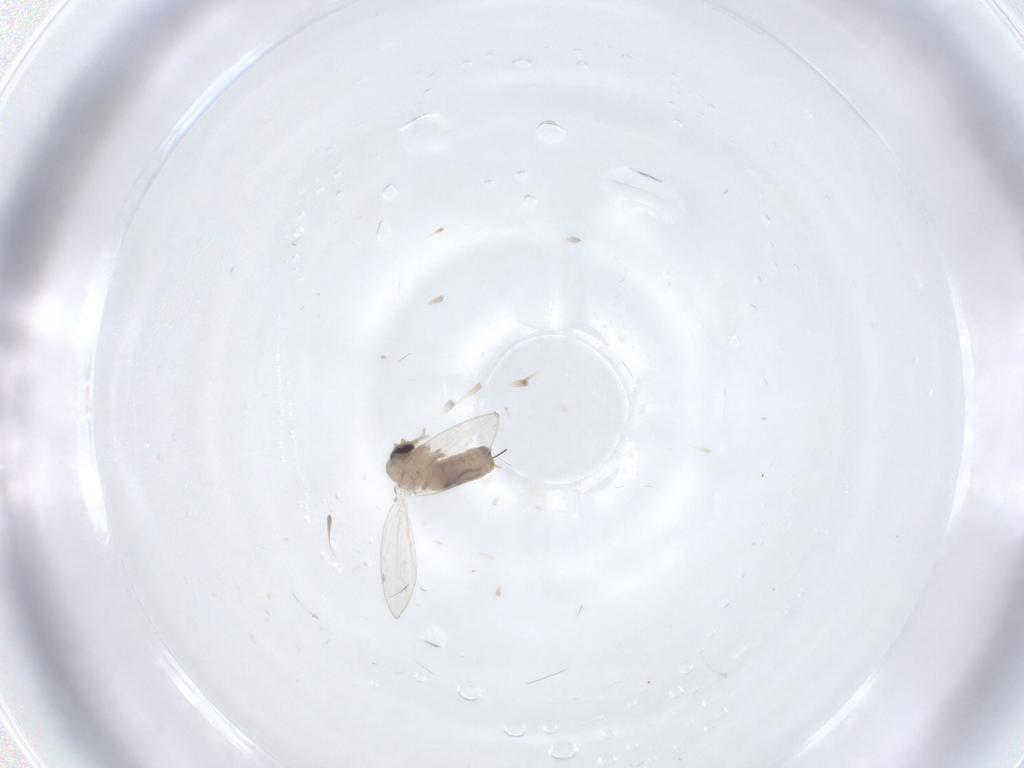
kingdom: Animalia
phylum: Arthropoda
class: Insecta
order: Diptera
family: Psychodidae
